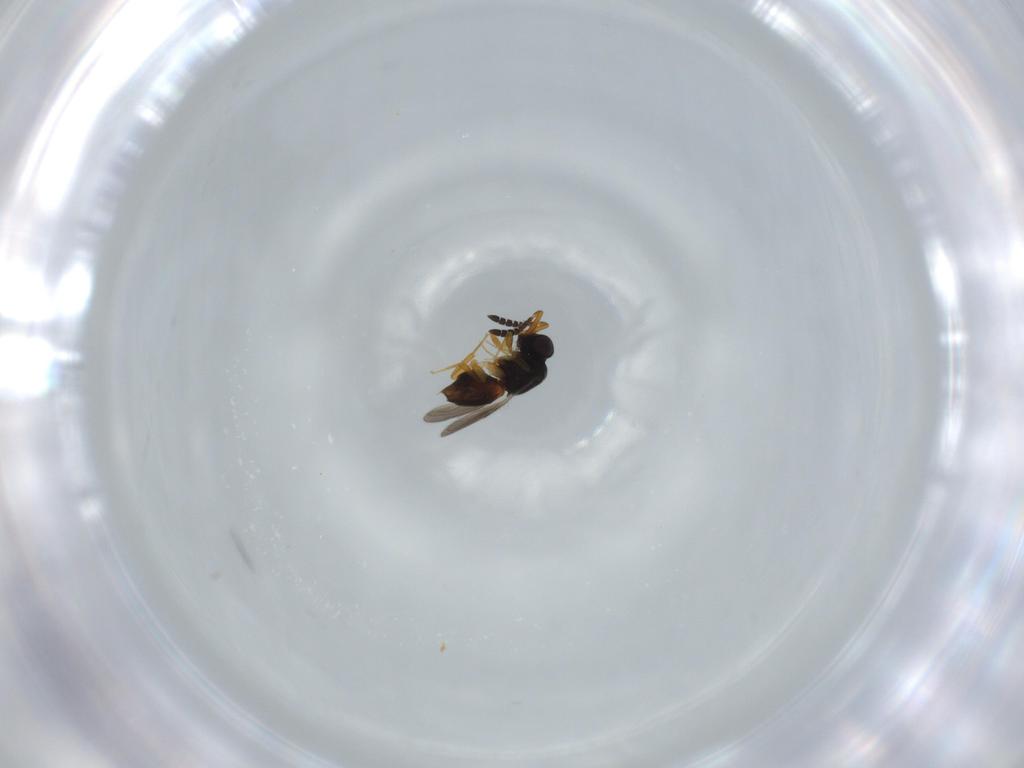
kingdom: Animalia
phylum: Arthropoda
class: Insecta
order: Hymenoptera
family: Ceraphronidae
